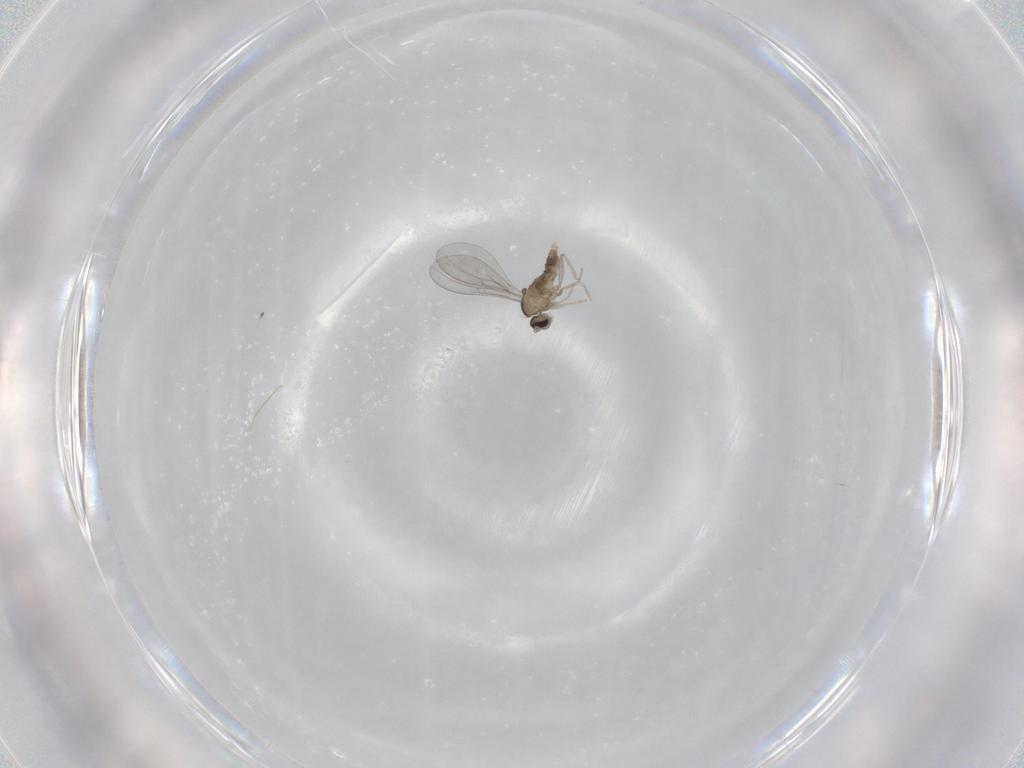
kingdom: Animalia
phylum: Arthropoda
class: Insecta
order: Diptera
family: Cecidomyiidae
